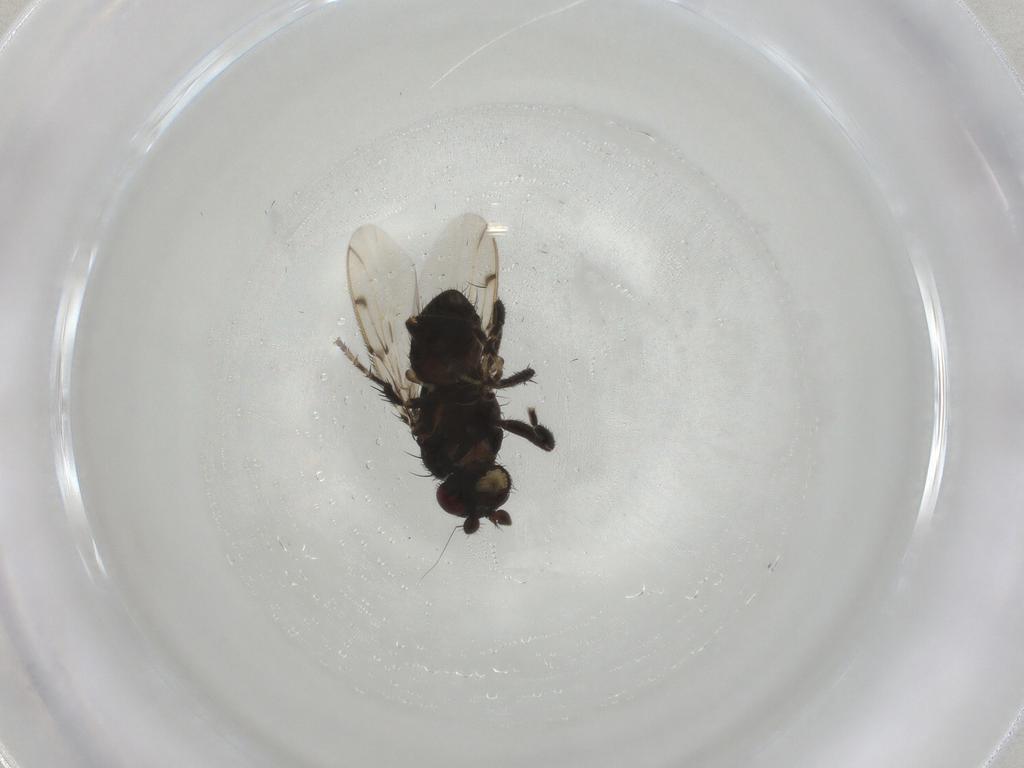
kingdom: Animalia
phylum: Arthropoda
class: Insecta
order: Diptera
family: Sphaeroceridae
